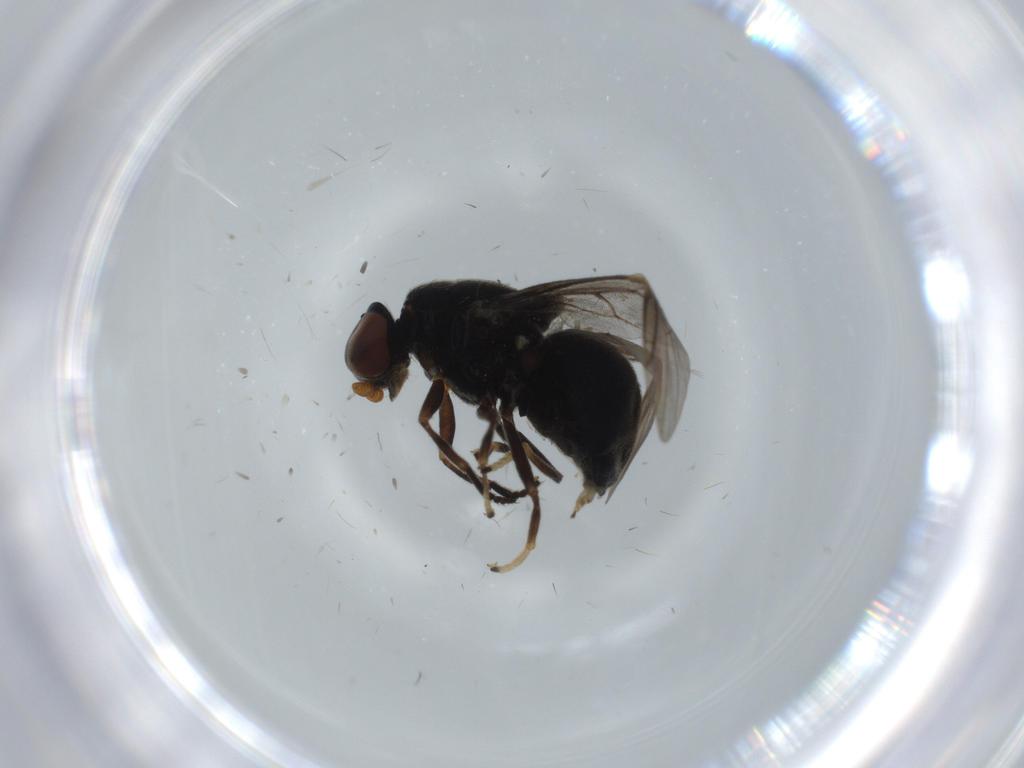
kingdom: Animalia
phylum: Arthropoda
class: Insecta
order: Diptera
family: Stratiomyidae
